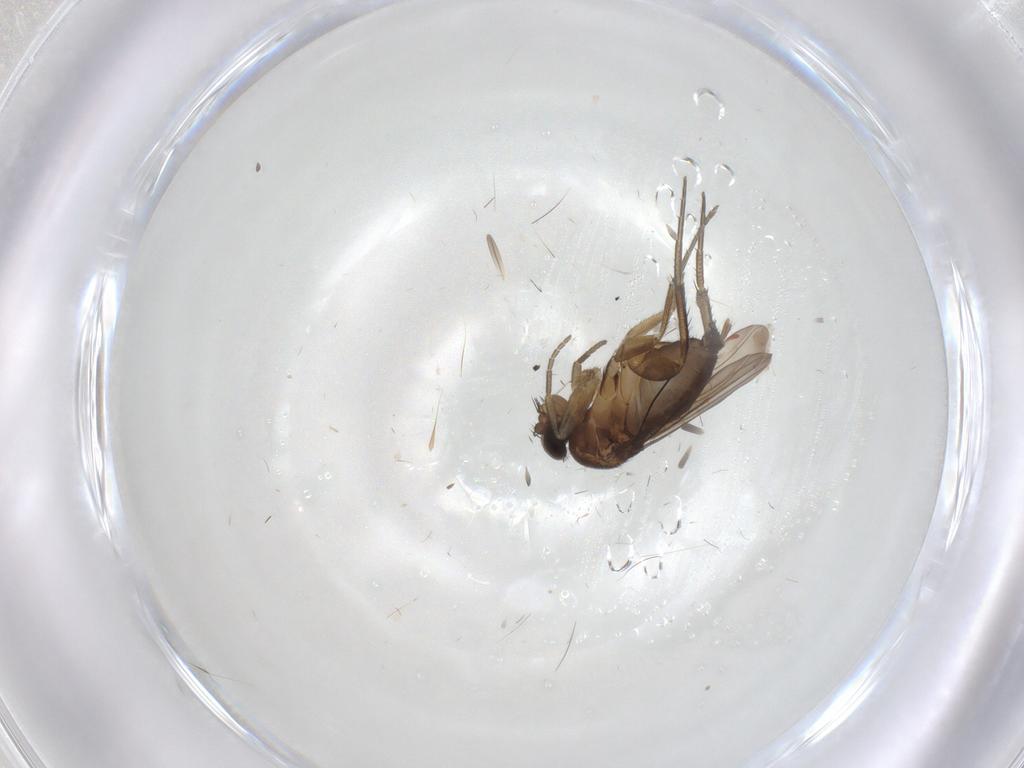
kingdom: Animalia
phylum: Arthropoda
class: Insecta
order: Diptera
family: Phoridae
